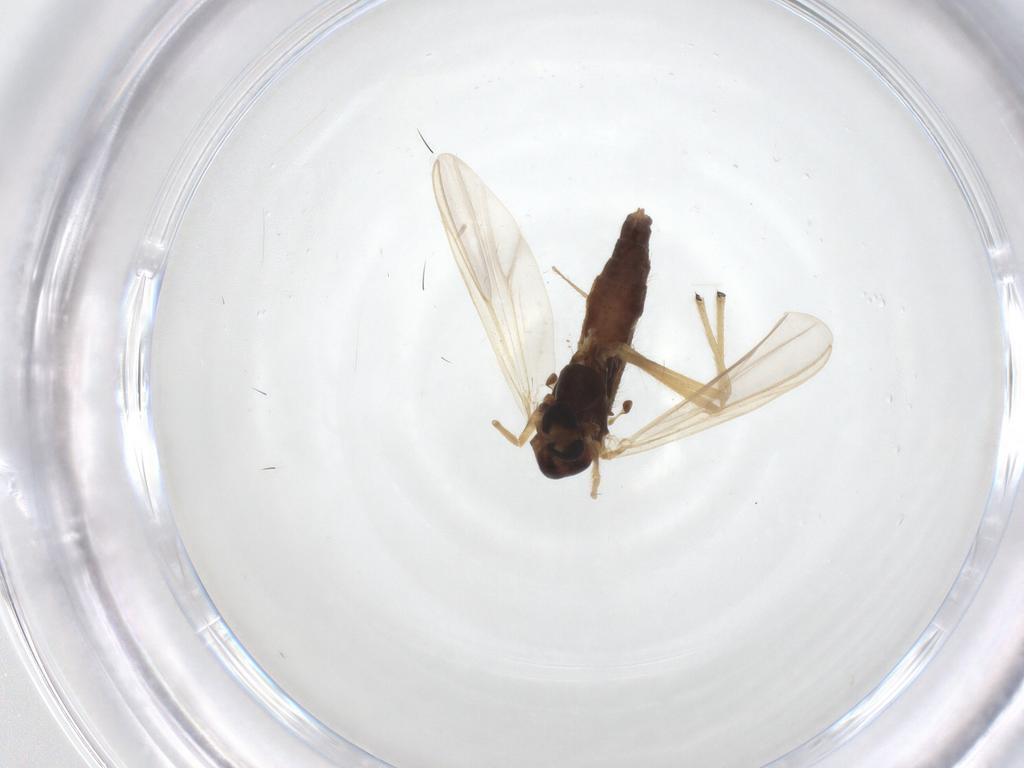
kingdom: Animalia
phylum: Arthropoda
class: Insecta
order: Diptera
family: Chironomidae
